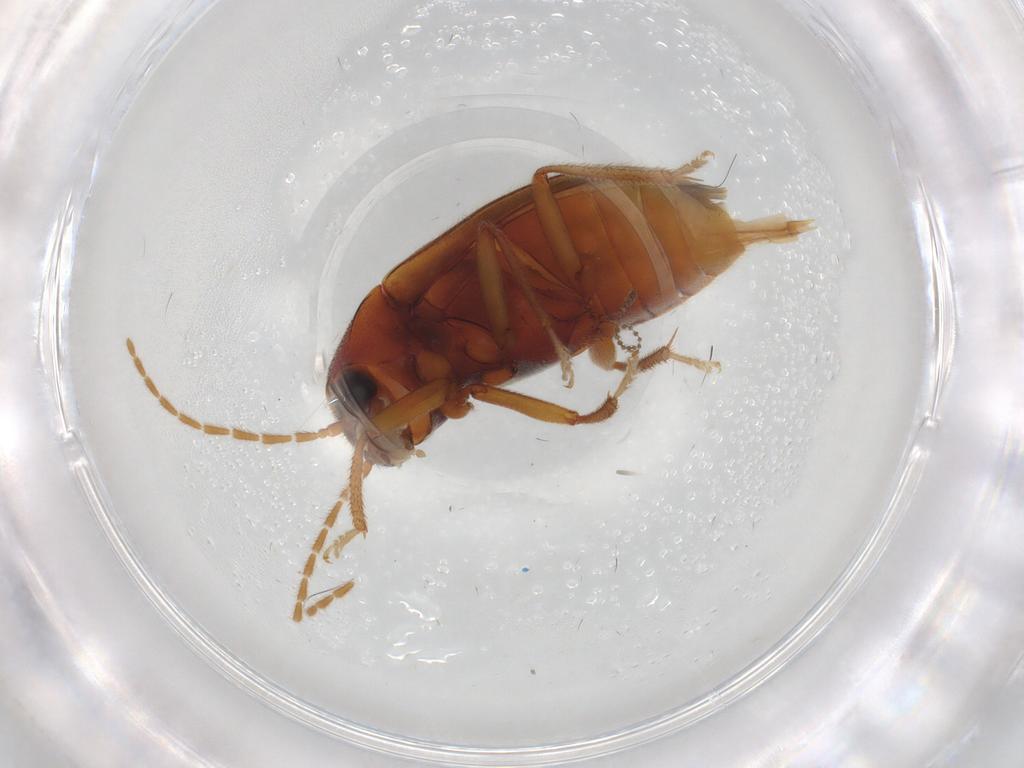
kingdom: Animalia
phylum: Arthropoda
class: Insecta
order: Coleoptera
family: Ptilodactylidae
